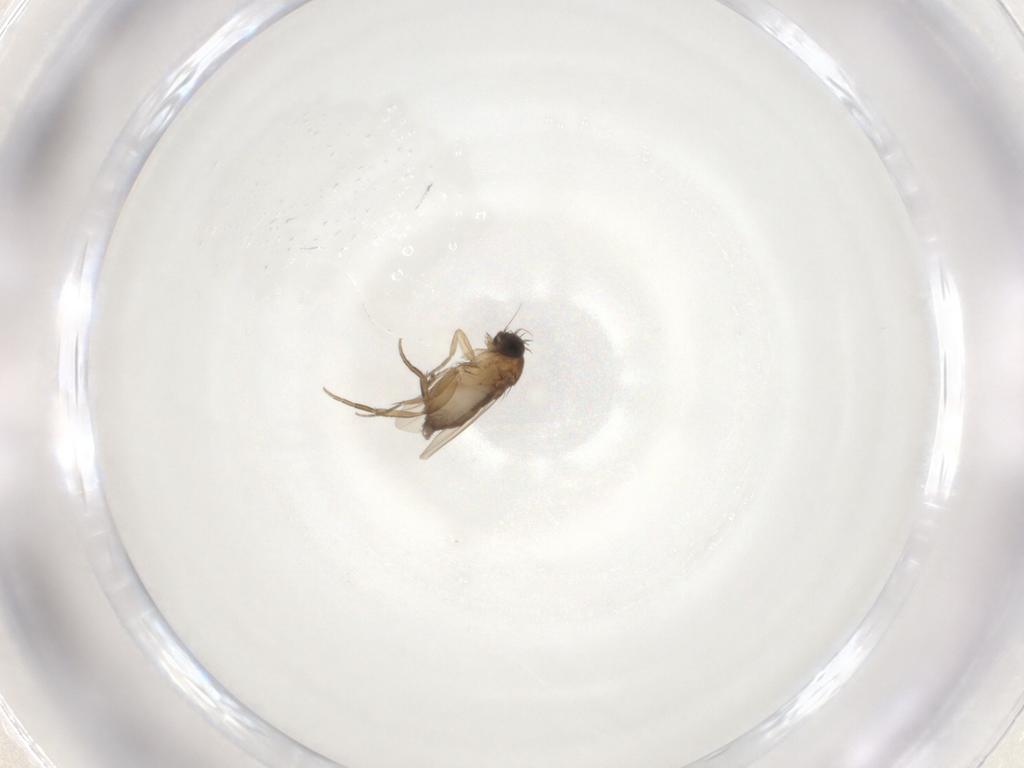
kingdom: Animalia
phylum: Arthropoda
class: Insecta
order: Diptera
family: Phoridae
